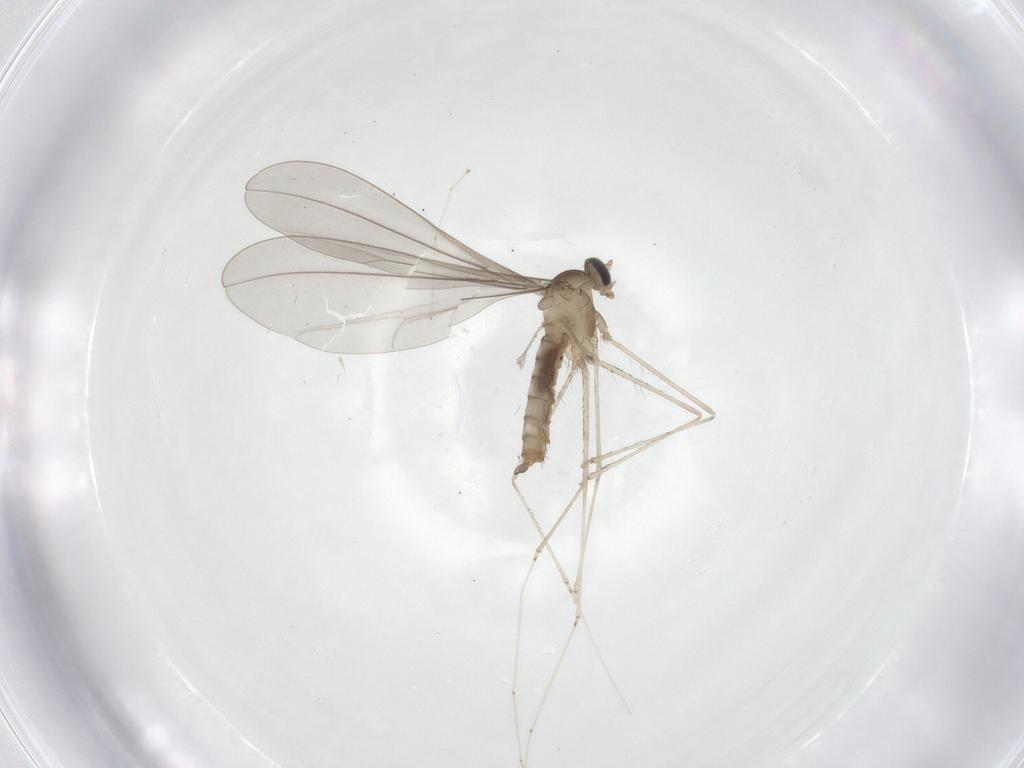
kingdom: Animalia
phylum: Arthropoda
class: Insecta
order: Diptera
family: Cecidomyiidae
